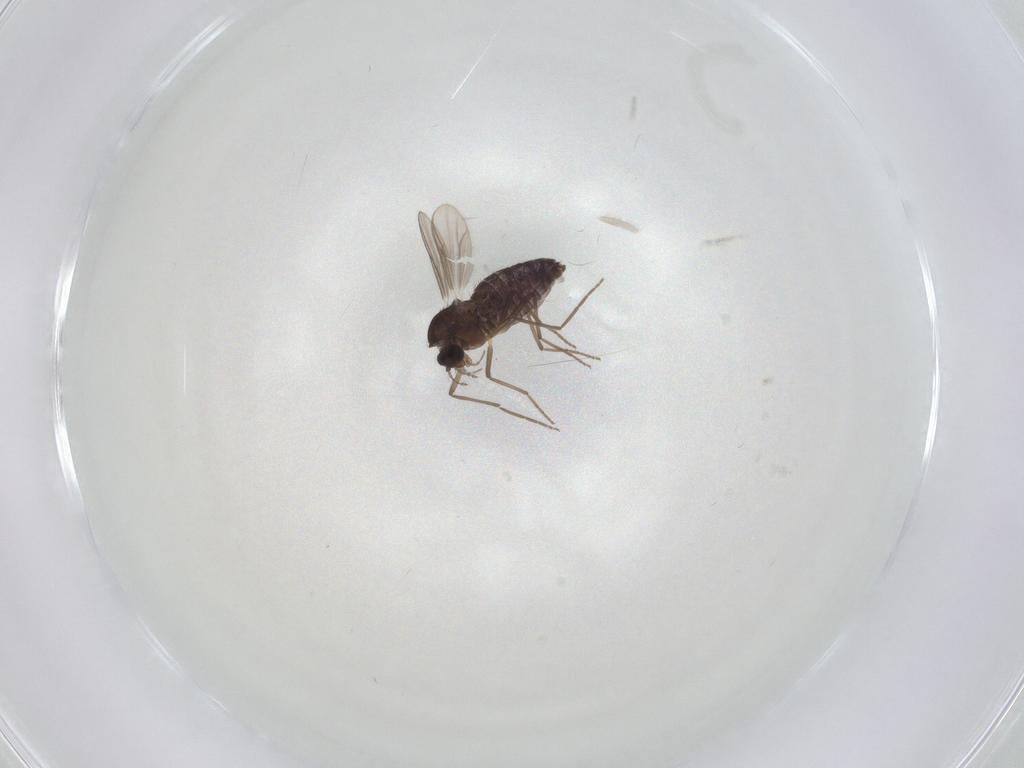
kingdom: Animalia
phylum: Arthropoda
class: Insecta
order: Diptera
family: Chironomidae
